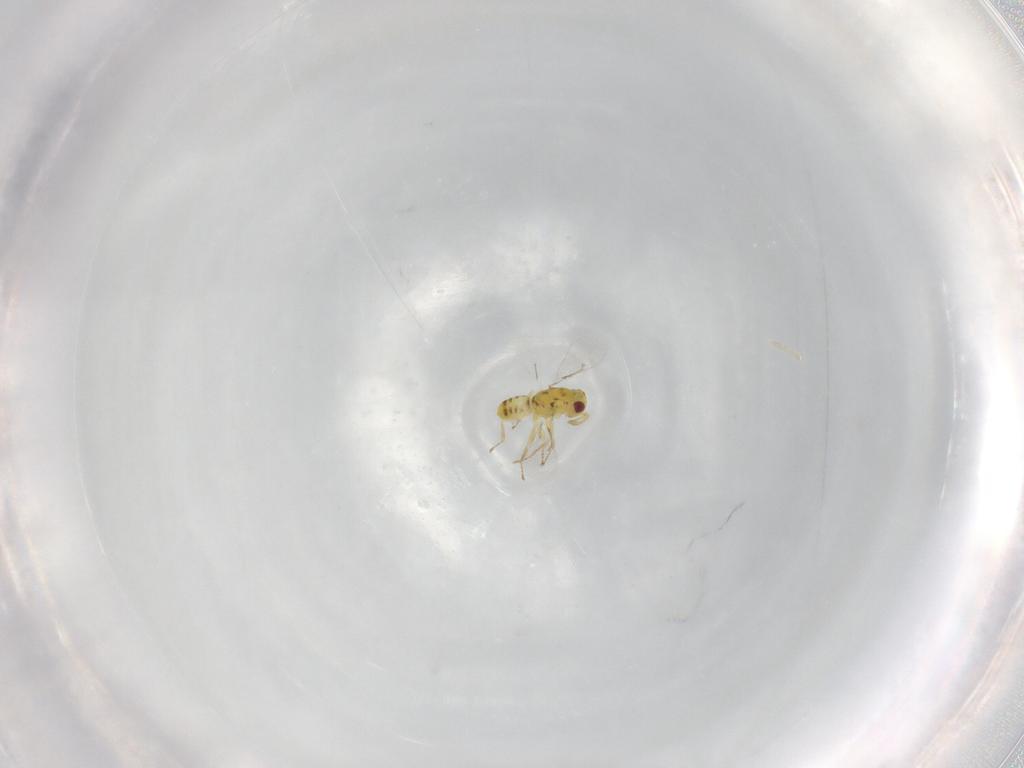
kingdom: Animalia
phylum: Arthropoda
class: Insecta
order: Hymenoptera
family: Eulophidae
